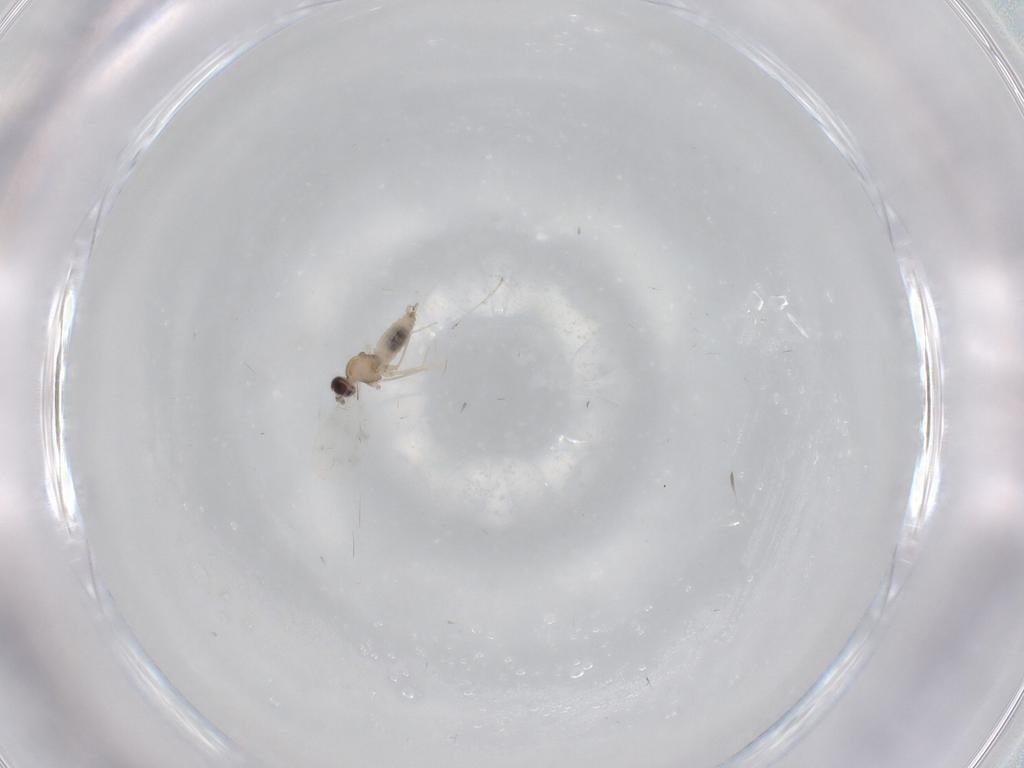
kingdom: Animalia
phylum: Arthropoda
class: Insecta
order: Diptera
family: Cecidomyiidae
